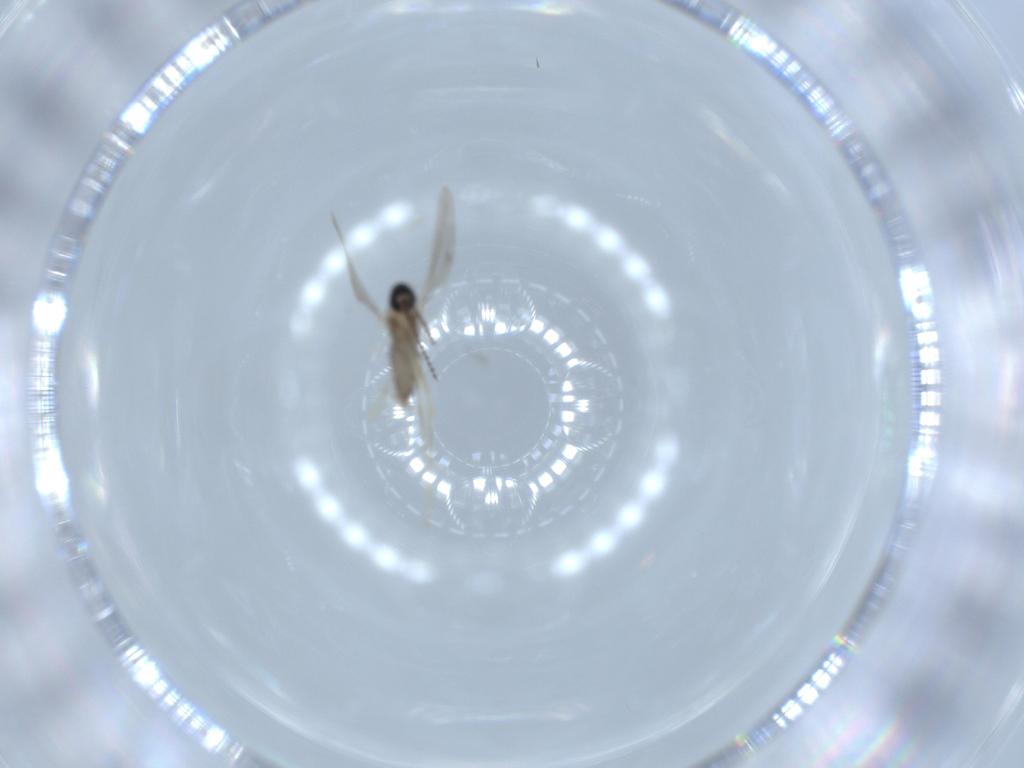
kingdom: Animalia
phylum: Arthropoda
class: Insecta
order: Diptera
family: Cecidomyiidae
